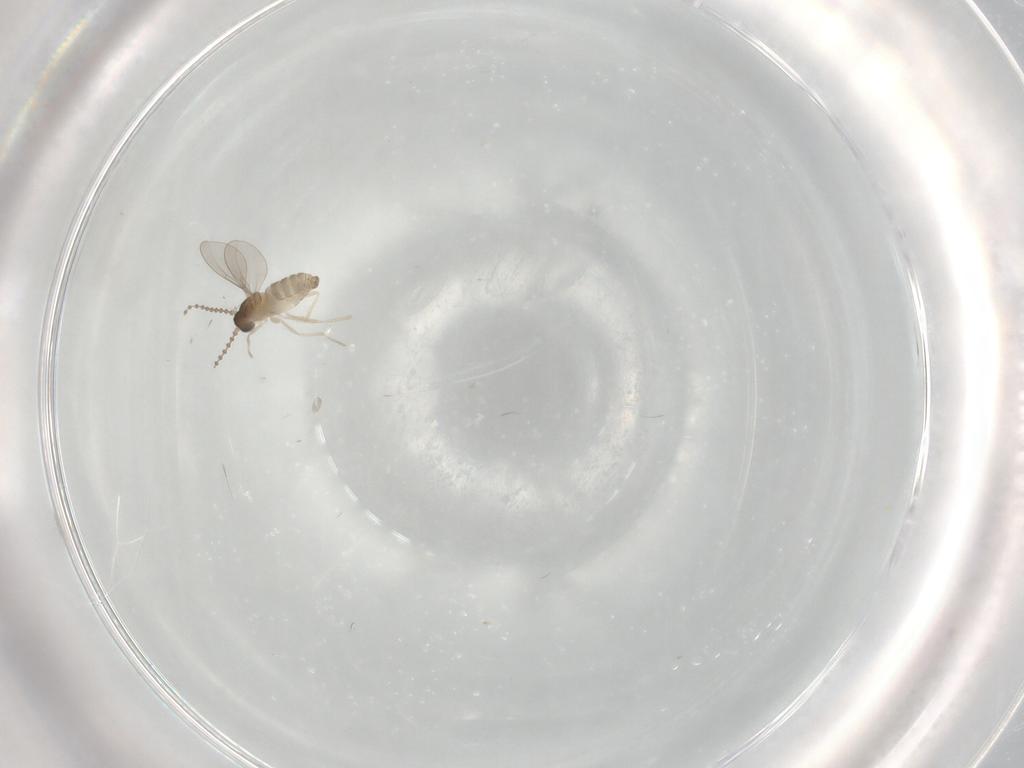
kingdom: Animalia
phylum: Arthropoda
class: Insecta
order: Diptera
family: Cecidomyiidae
